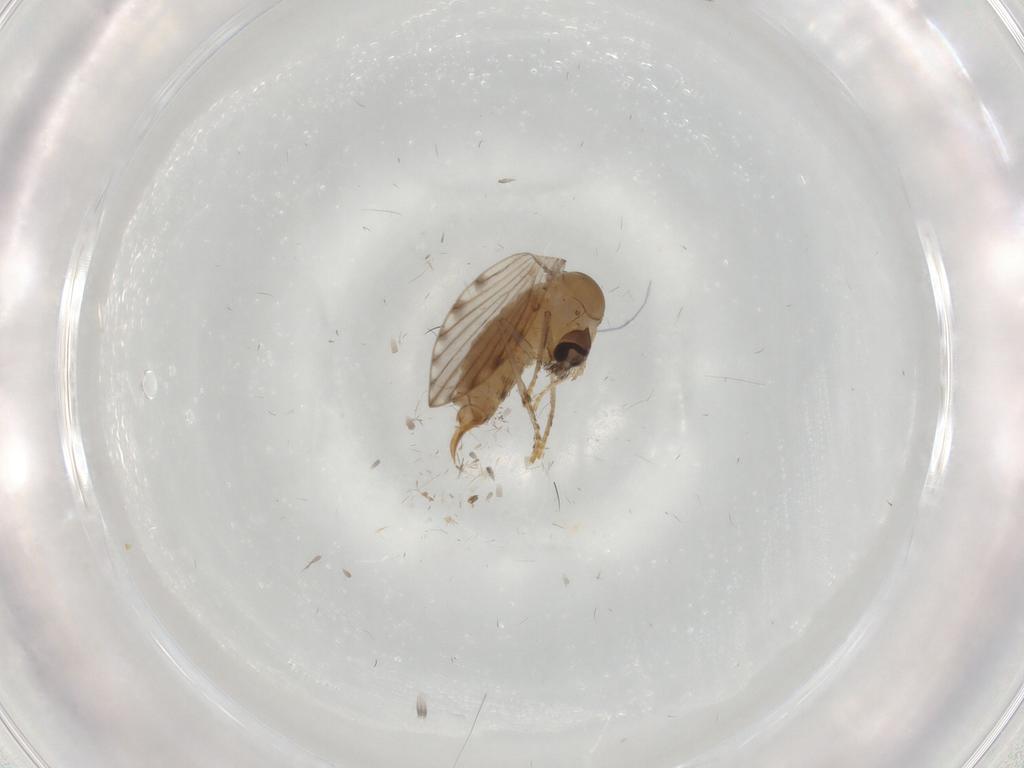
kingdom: Animalia
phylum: Arthropoda
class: Insecta
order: Diptera
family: Psychodidae
